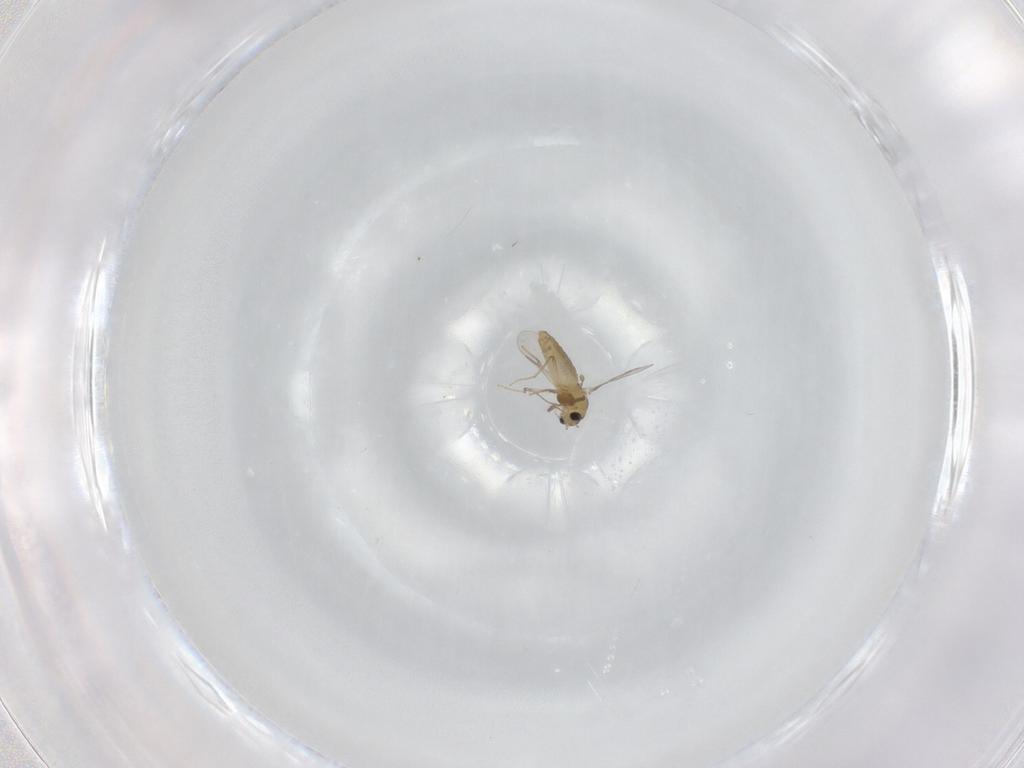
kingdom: Animalia
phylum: Arthropoda
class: Insecta
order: Diptera
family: Chironomidae
